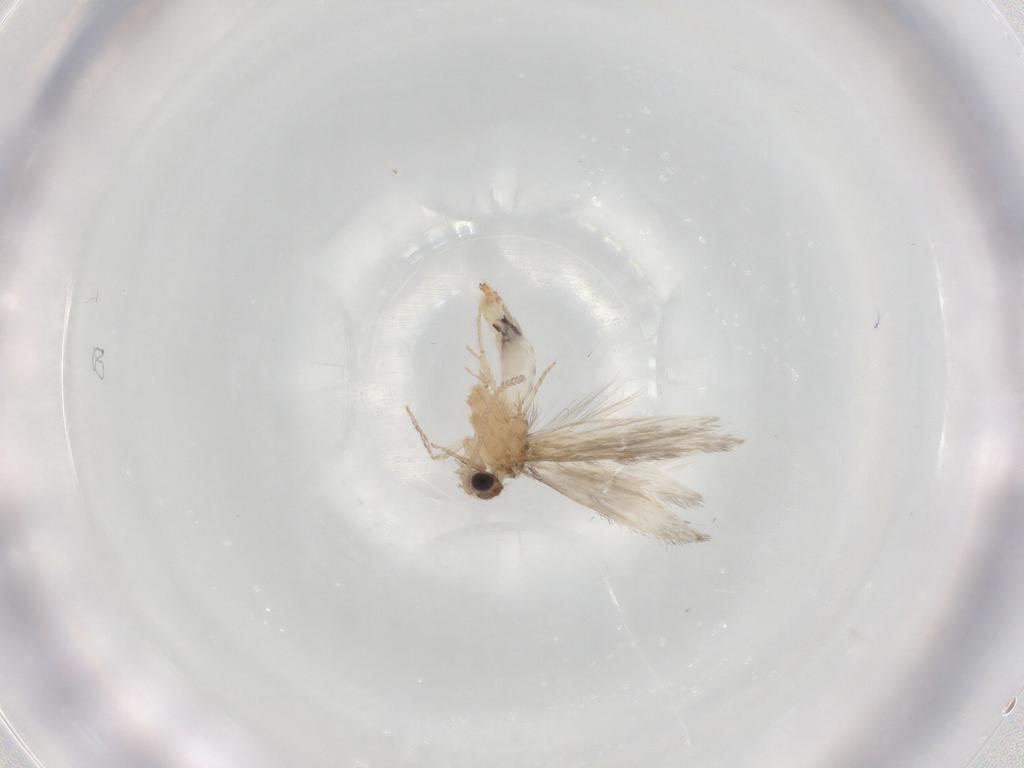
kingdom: Animalia
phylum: Arthropoda
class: Insecta
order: Trichoptera
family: Hydroptilidae
